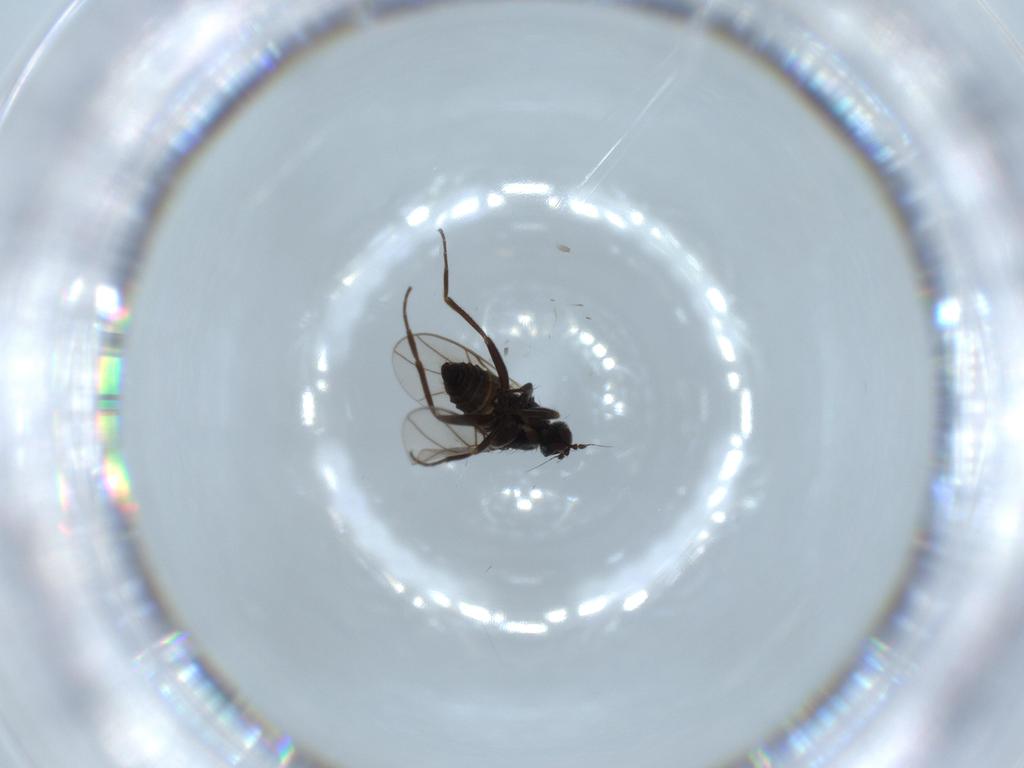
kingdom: Animalia
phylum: Arthropoda
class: Insecta
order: Diptera
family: Hybotidae
